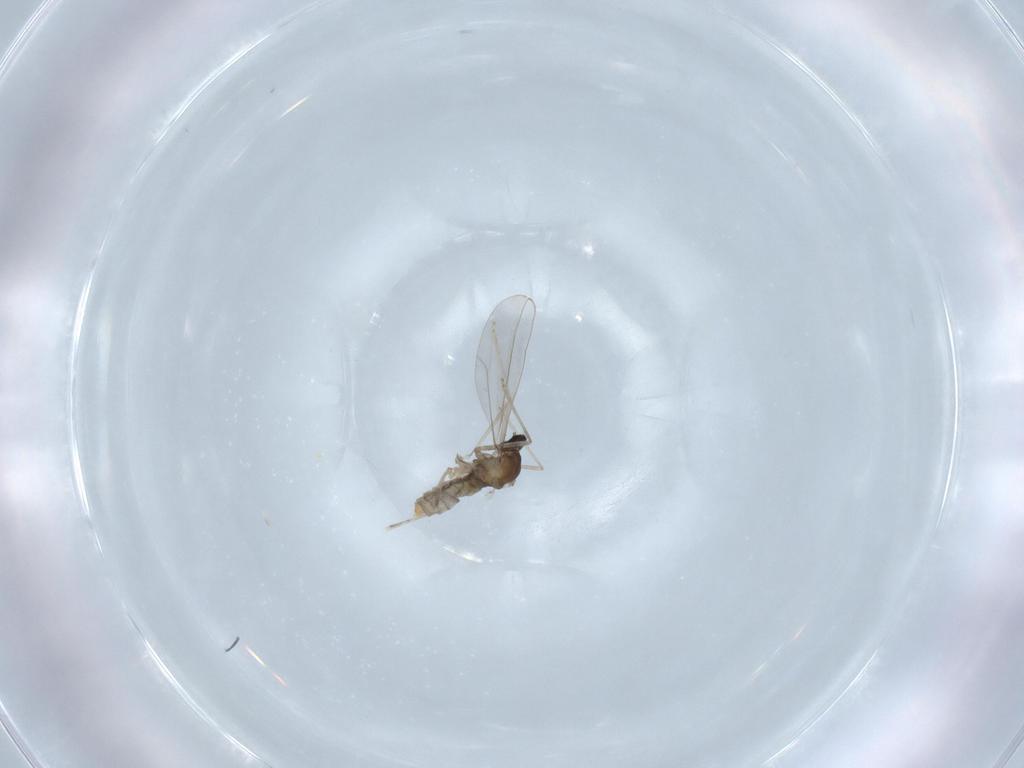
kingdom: Animalia
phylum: Arthropoda
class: Insecta
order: Diptera
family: Cecidomyiidae
